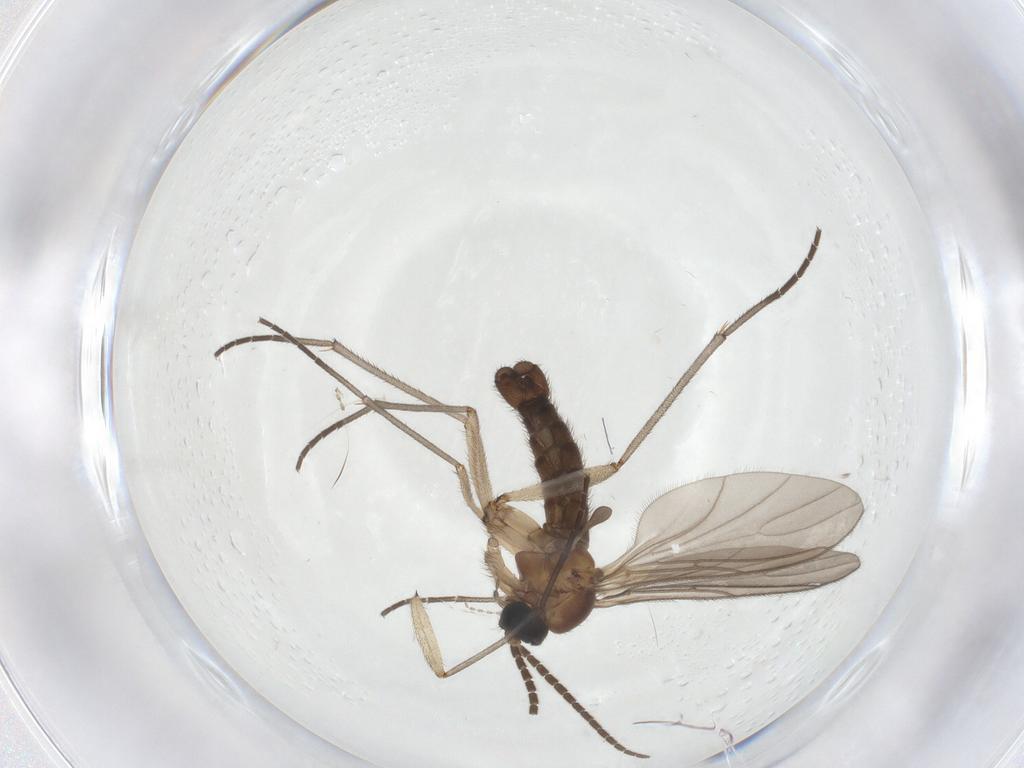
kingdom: Animalia
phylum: Arthropoda
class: Insecta
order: Diptera
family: Sciaridae
